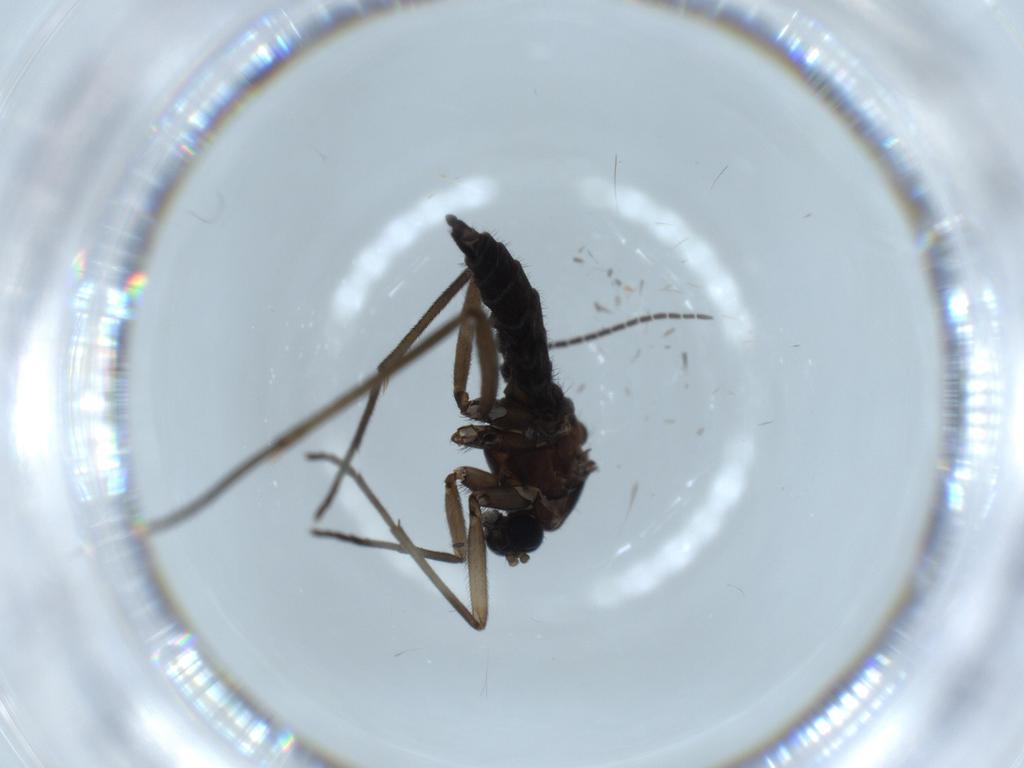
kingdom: Animalia
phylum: Arthropoda
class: Insecta
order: Diptera
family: Sciaridae
